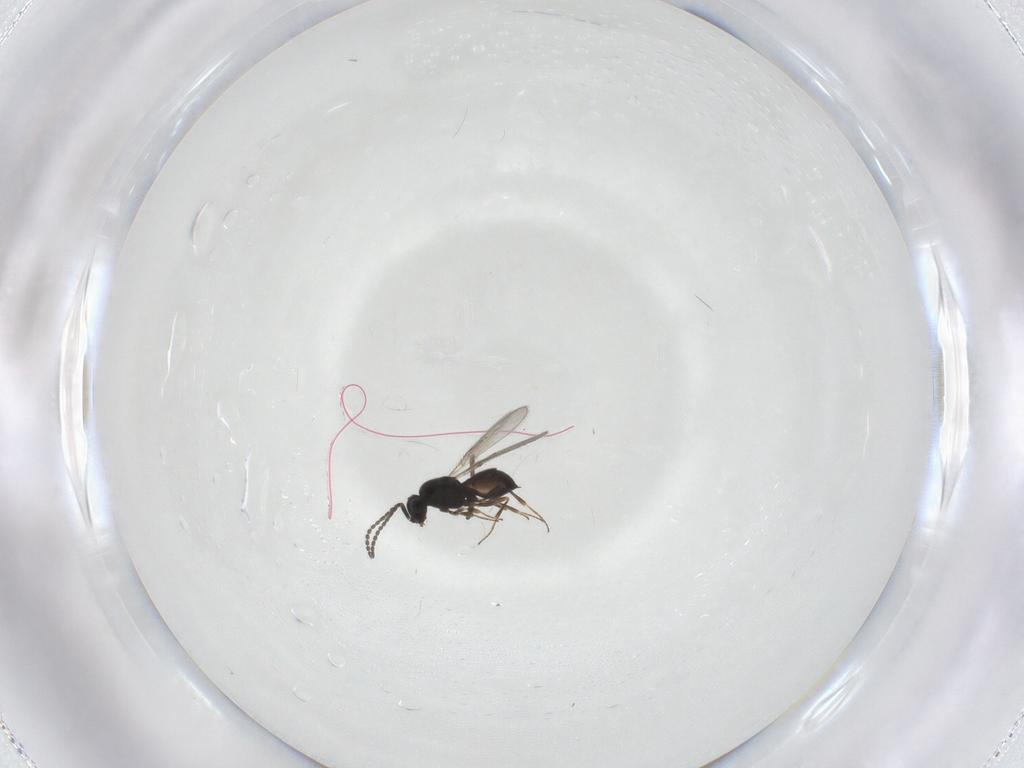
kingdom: Animalia
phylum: Arthropoda
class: Insecta
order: Hymenoptera
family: Scelionidae
